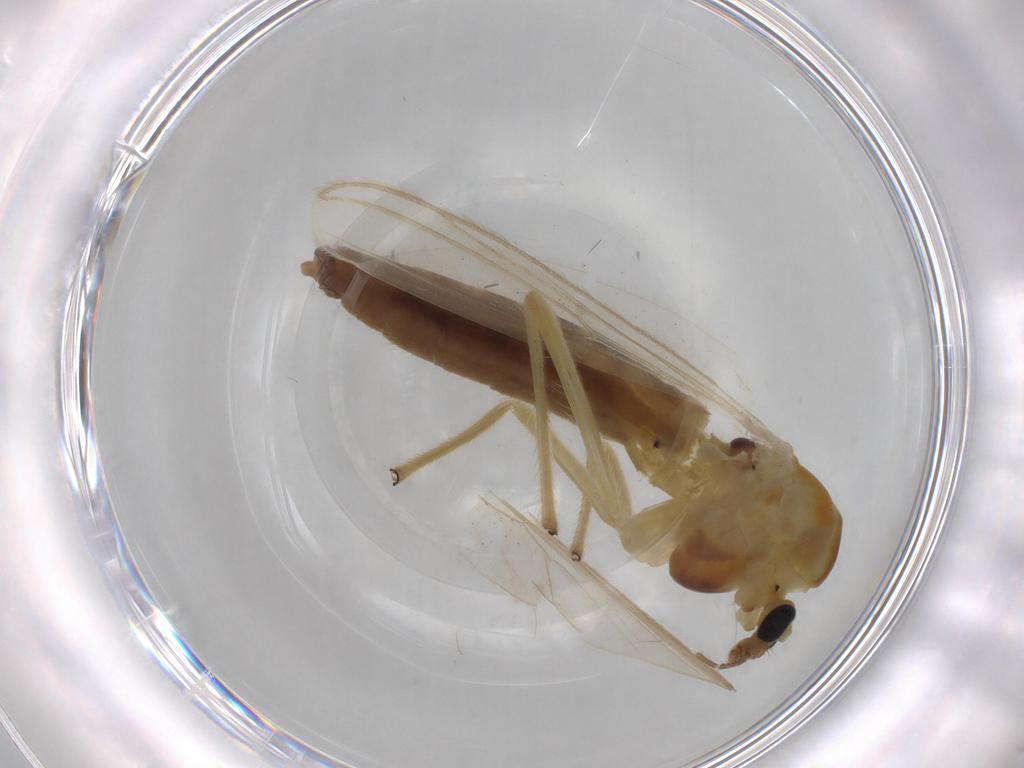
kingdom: Animalia
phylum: Arthropoda
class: Insecta
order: Diptera
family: Chironomidae
